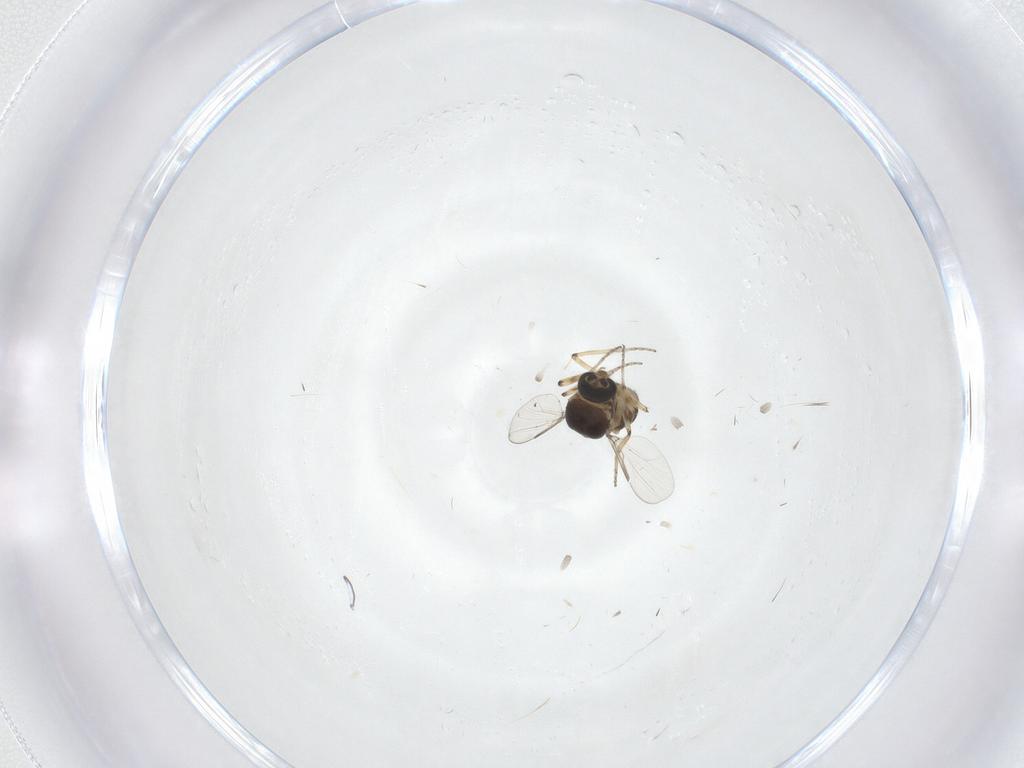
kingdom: Animalia
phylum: Arthropoda
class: Insecta
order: Diptera
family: Ceratopogonidae
